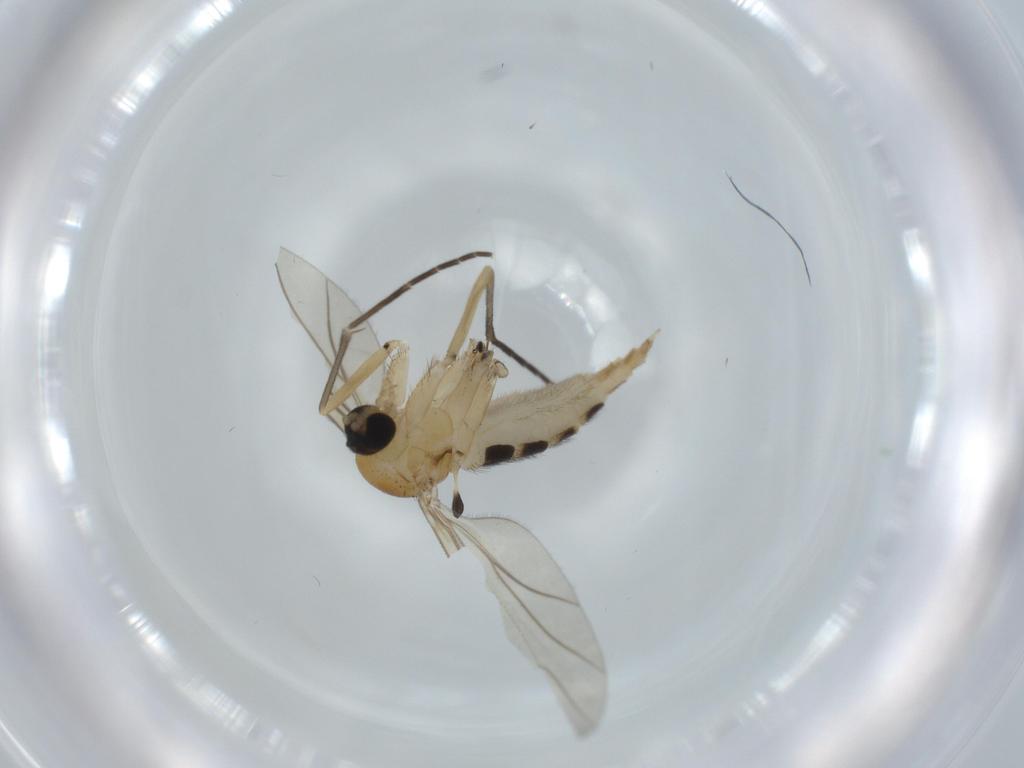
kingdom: Animalia
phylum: Arthropoda
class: Insecta
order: Diptera
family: Sciaridae
